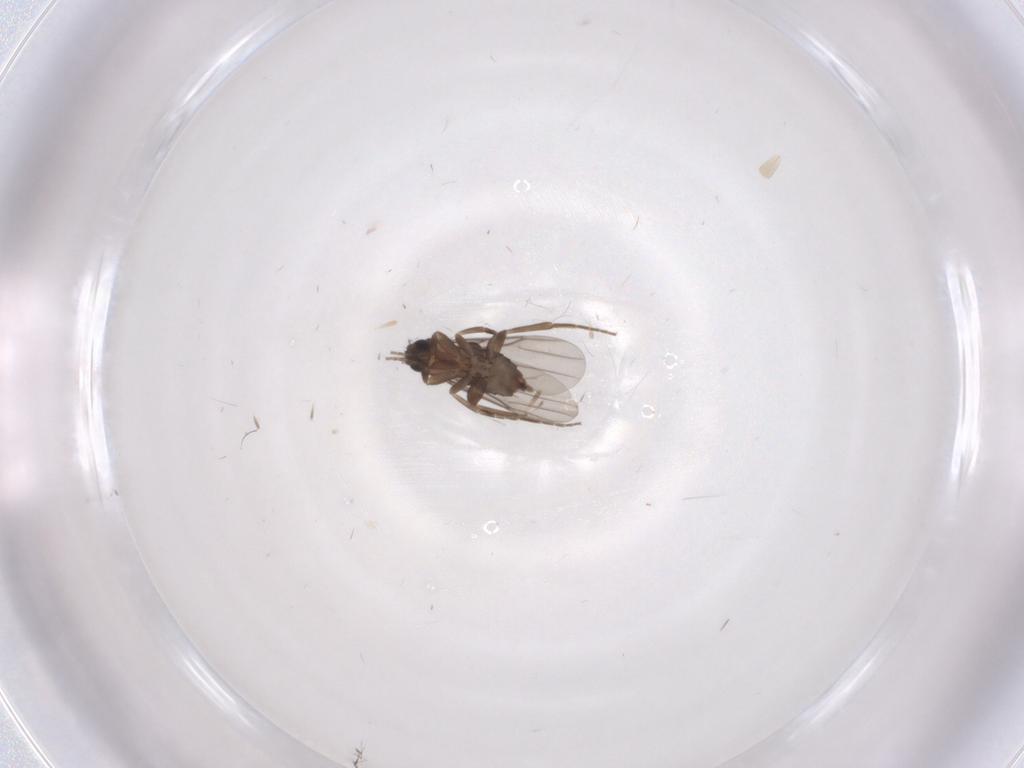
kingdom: Animalia
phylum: Arthropoda
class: Insecta
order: Diptera
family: Phoridae
